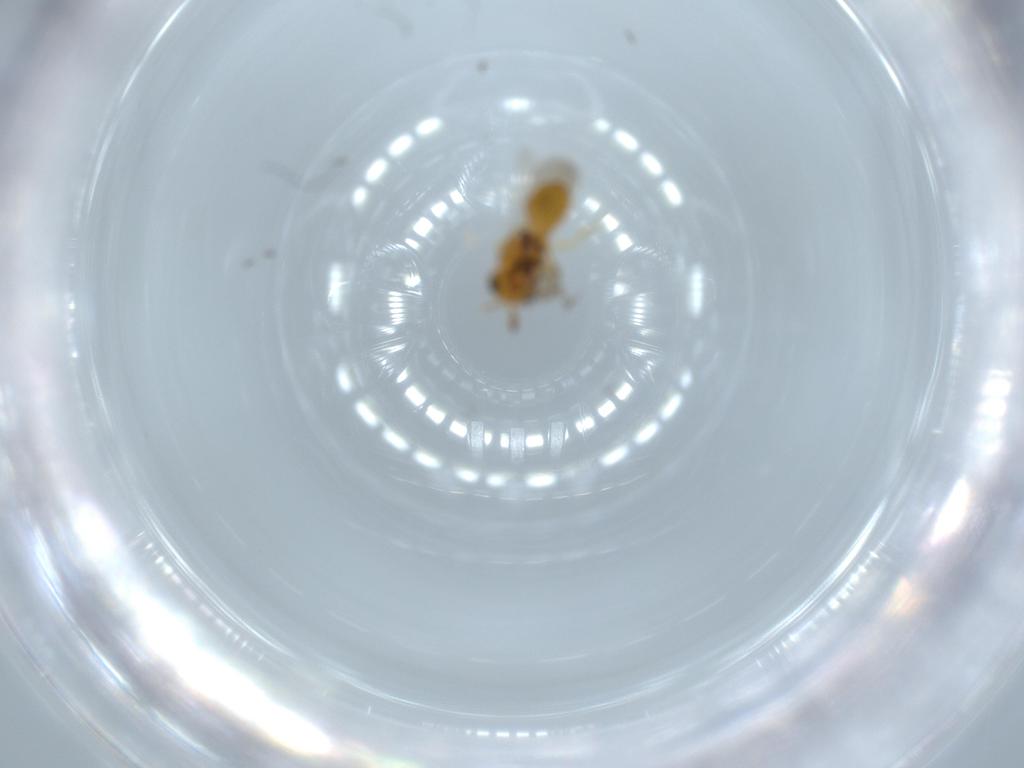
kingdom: Animalia
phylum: Arthropoda
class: Insecta
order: Hymenoptera
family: Scelionidae
